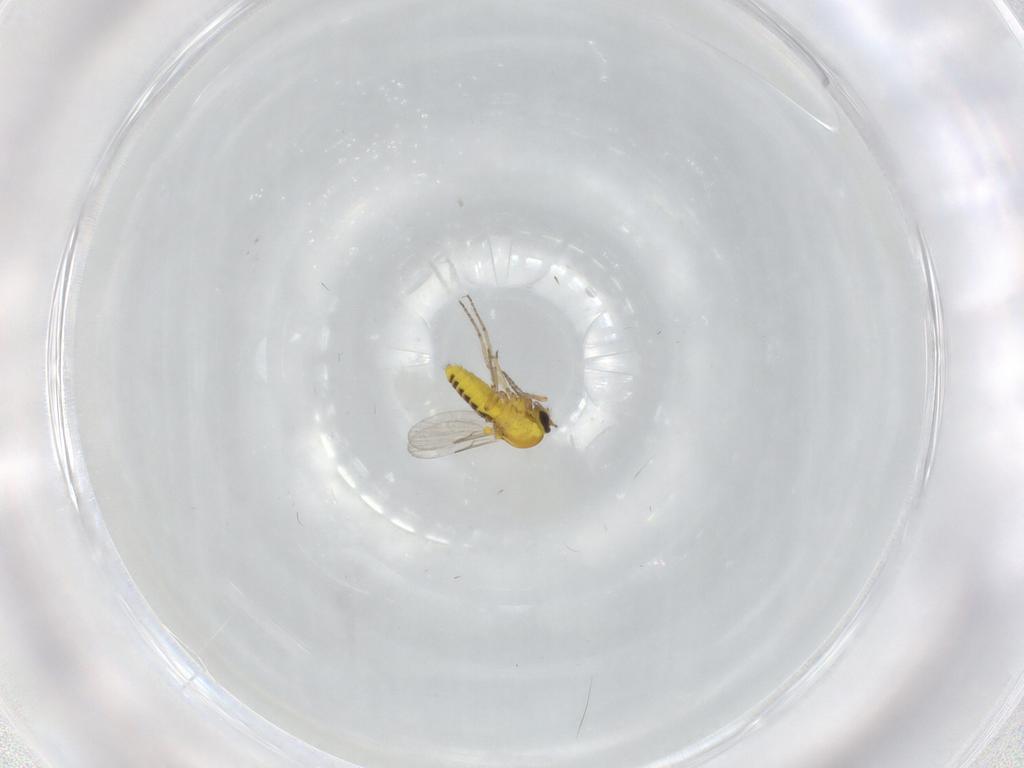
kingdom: Animalia
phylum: Arthropoda
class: Insecta
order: Diptera
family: Ceratopogonidae
